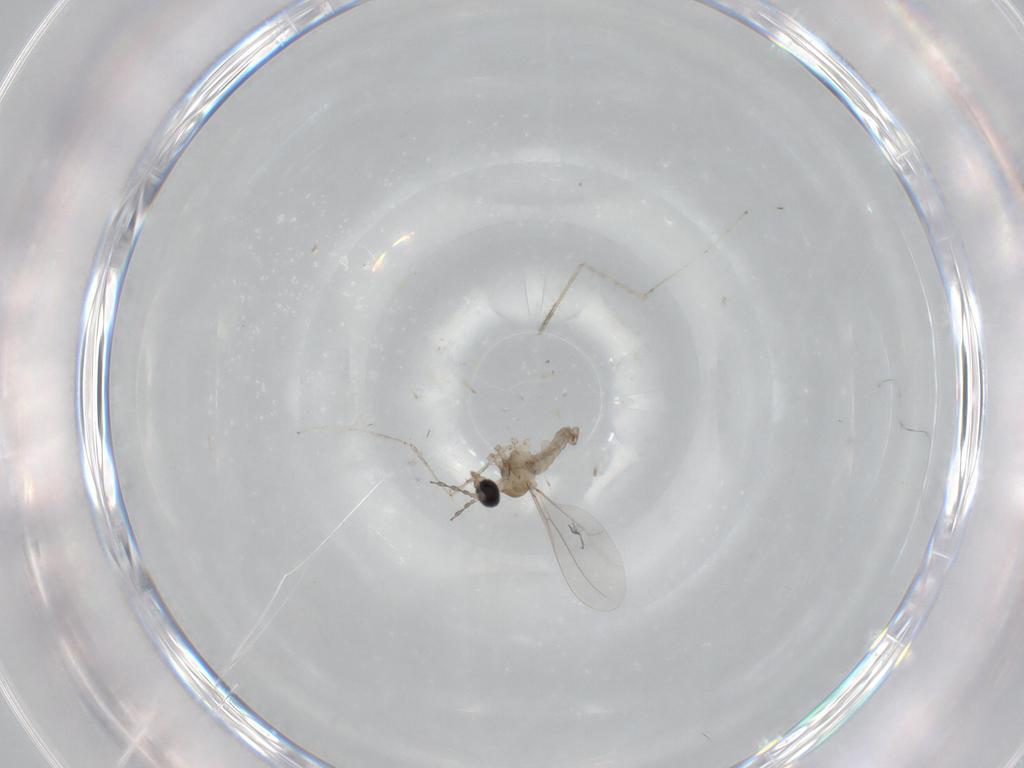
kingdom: Animalia
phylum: Arthropoda
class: Insecta
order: Diptera
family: Cecidomyiidae
